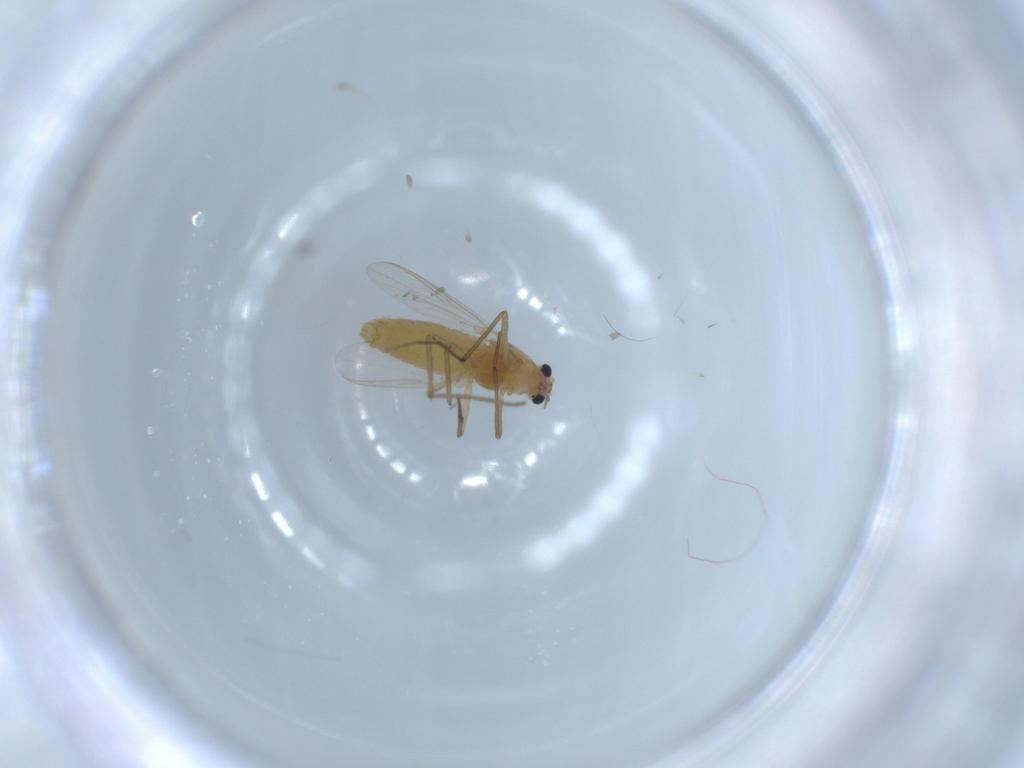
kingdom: Animalia
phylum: Arthropoda
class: Insecta
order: Diptera
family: Chironomidae
